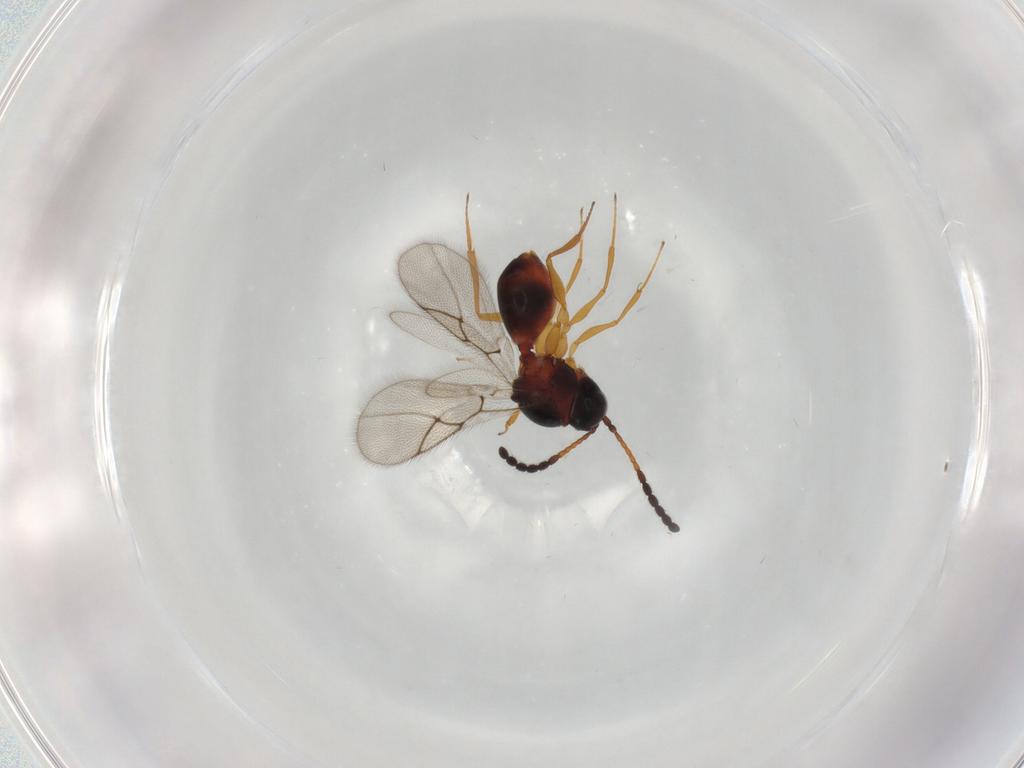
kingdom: Animalia
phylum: Arthropoda
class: Insecta
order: Hymenoptera
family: Figitidae
